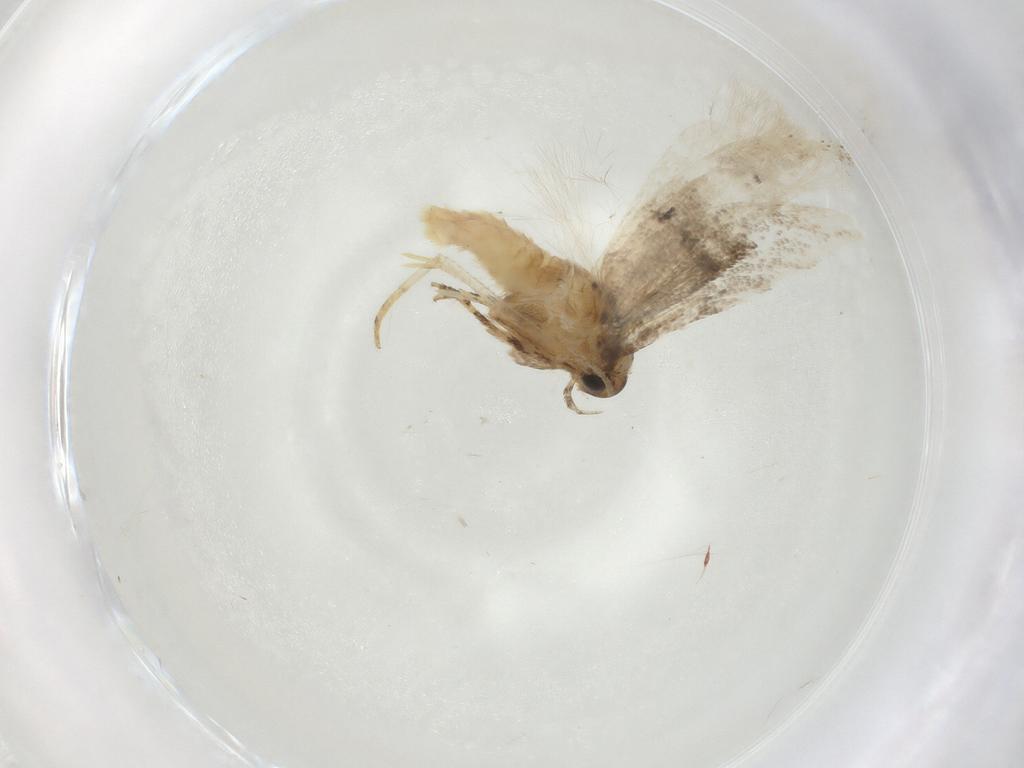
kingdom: Animalia
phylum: Arthropoda
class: Insecta
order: Lepidoptera
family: Gelechiidae
